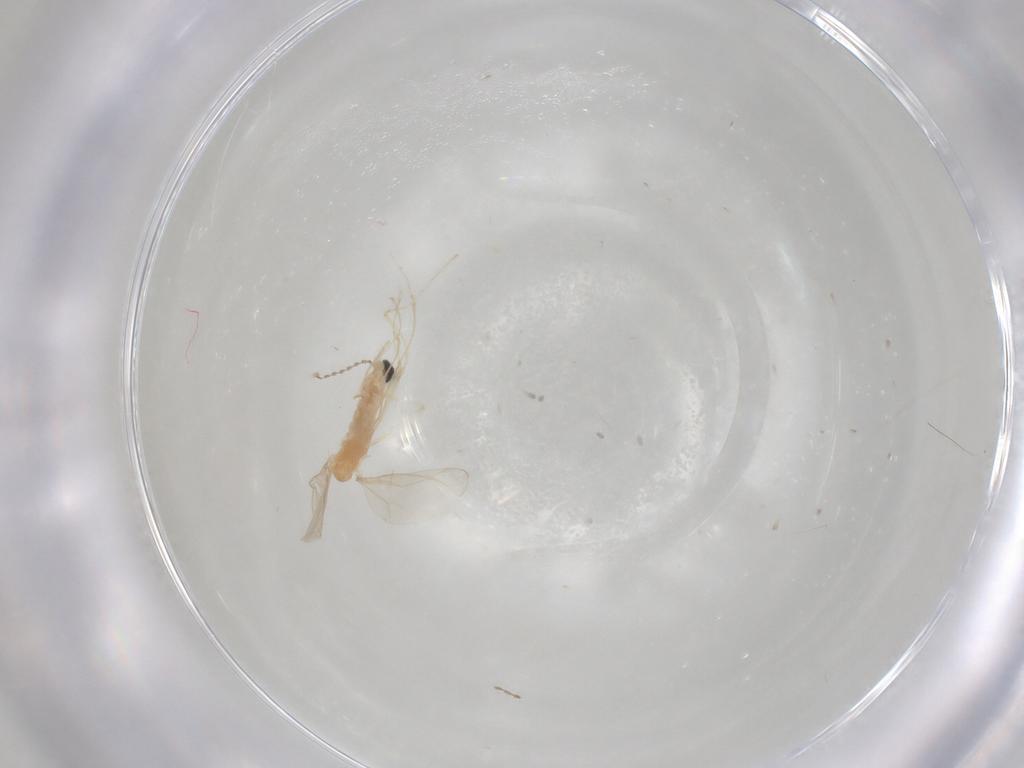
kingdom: Animalia
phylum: Arthropoda
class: Insecta
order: Diptera
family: Cecidomyiidae
